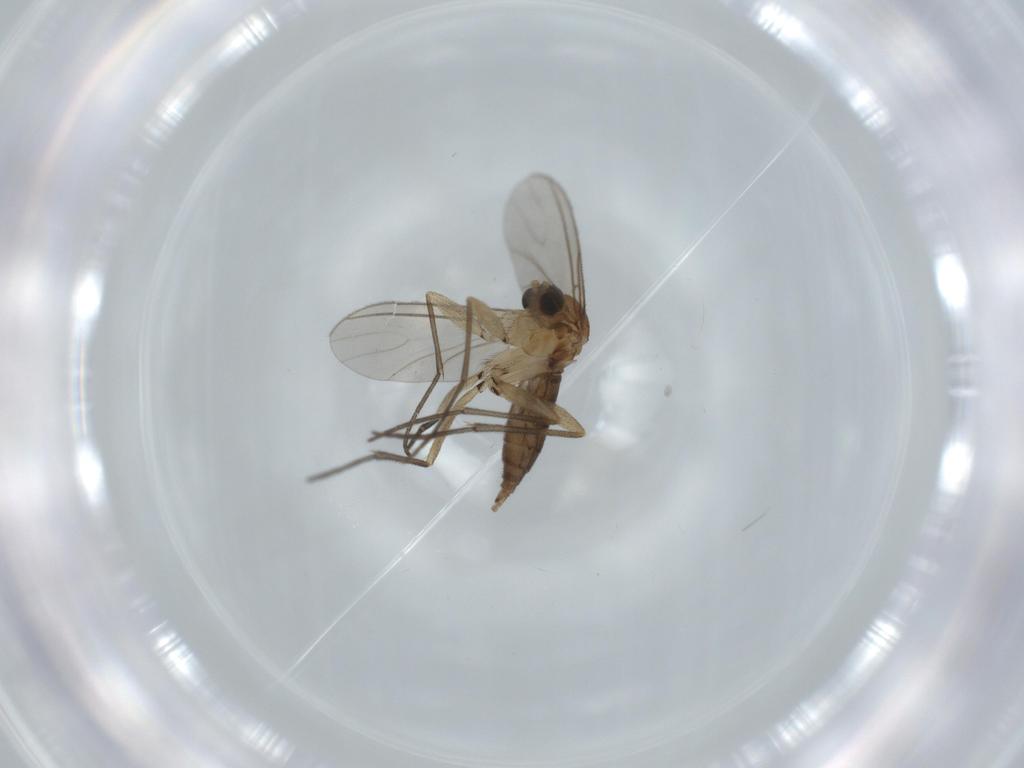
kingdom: Animalia
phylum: Arthropoda
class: Insecta
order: Diptera
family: Sciaridae
